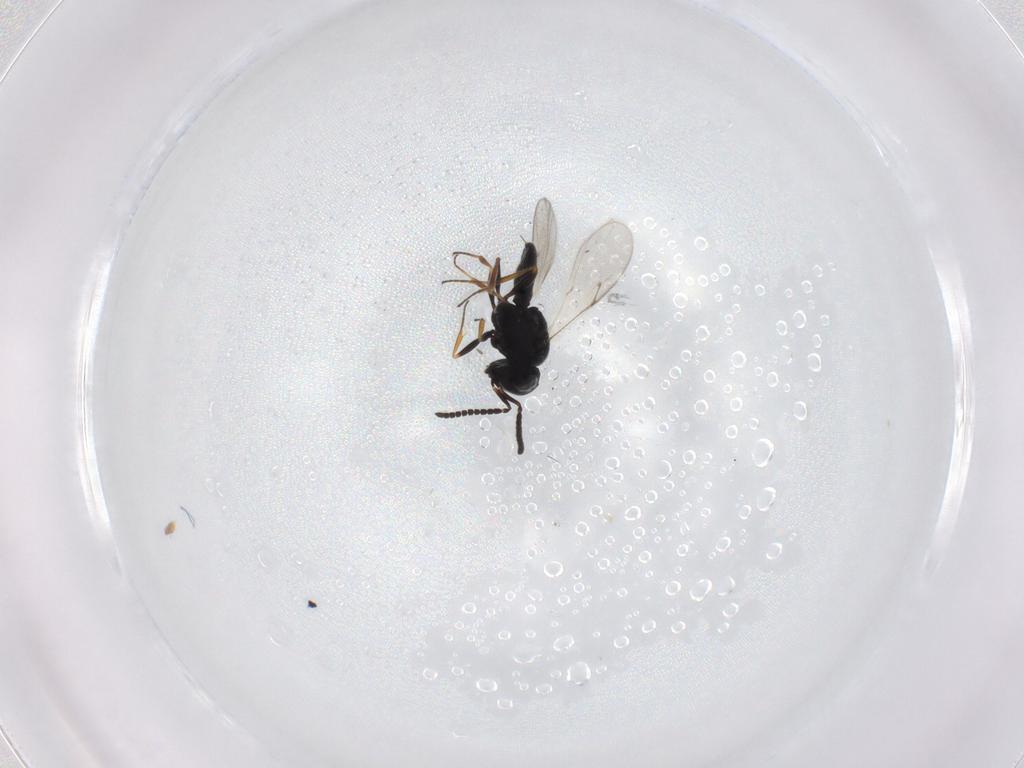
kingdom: Animalia
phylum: Arthropoda
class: Insecta
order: Hymenoptera
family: Scelionidae
